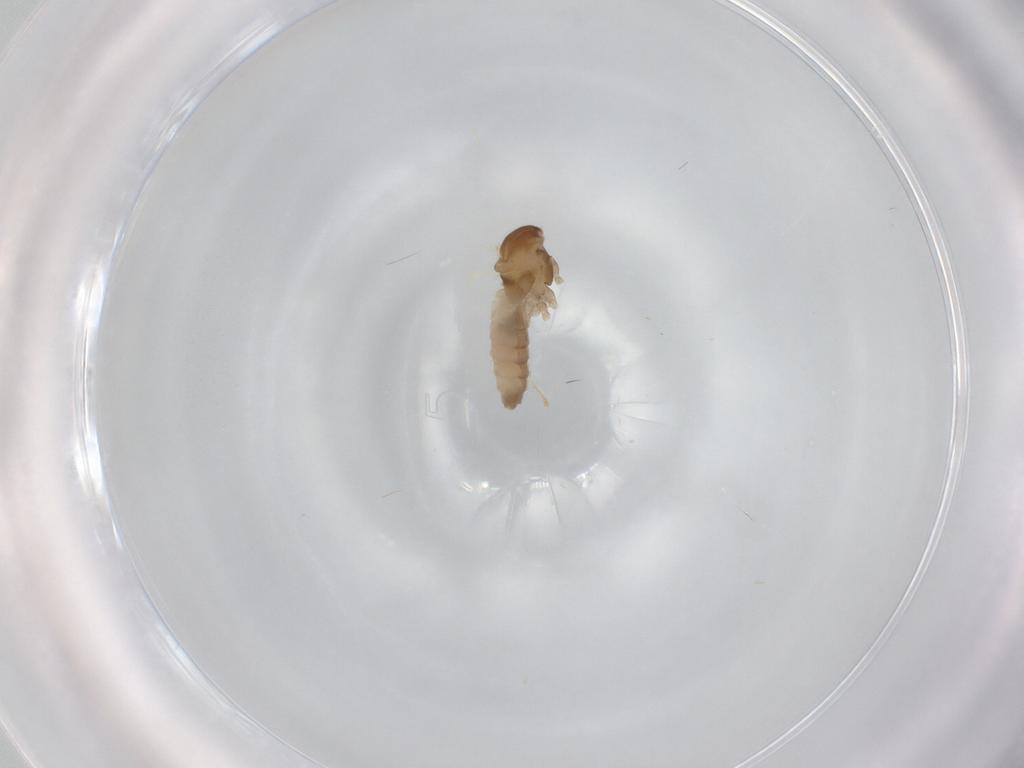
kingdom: Animalia
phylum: Arthropoda
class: Insecta
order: Diptera
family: Cecidomyiidae
